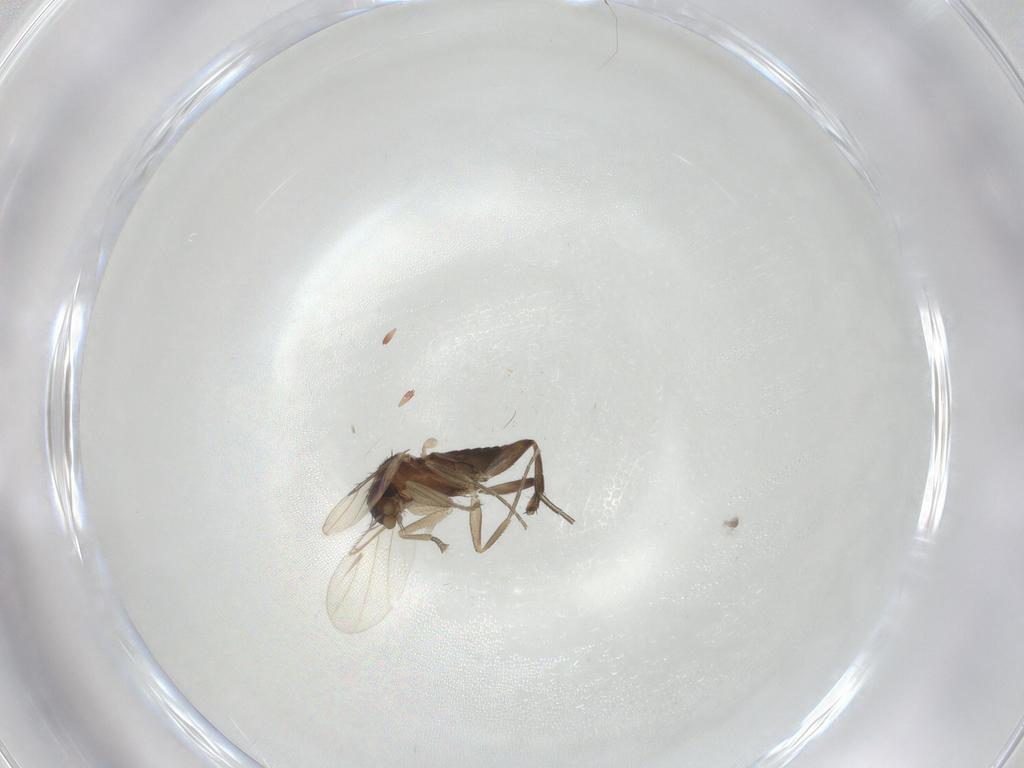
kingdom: Animalia
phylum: Arthropoda
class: Insecta
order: Diptera
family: Phoridae
